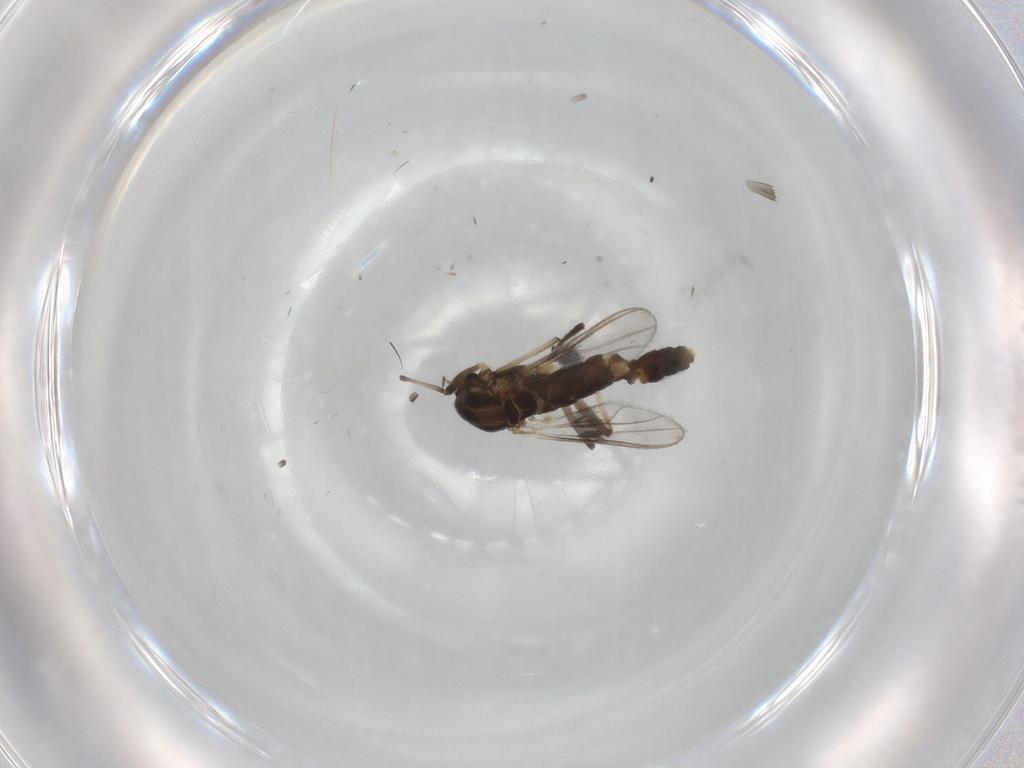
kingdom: Animalia
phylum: Arthropoda
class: Insecta
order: Diptera
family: Chironomidae
